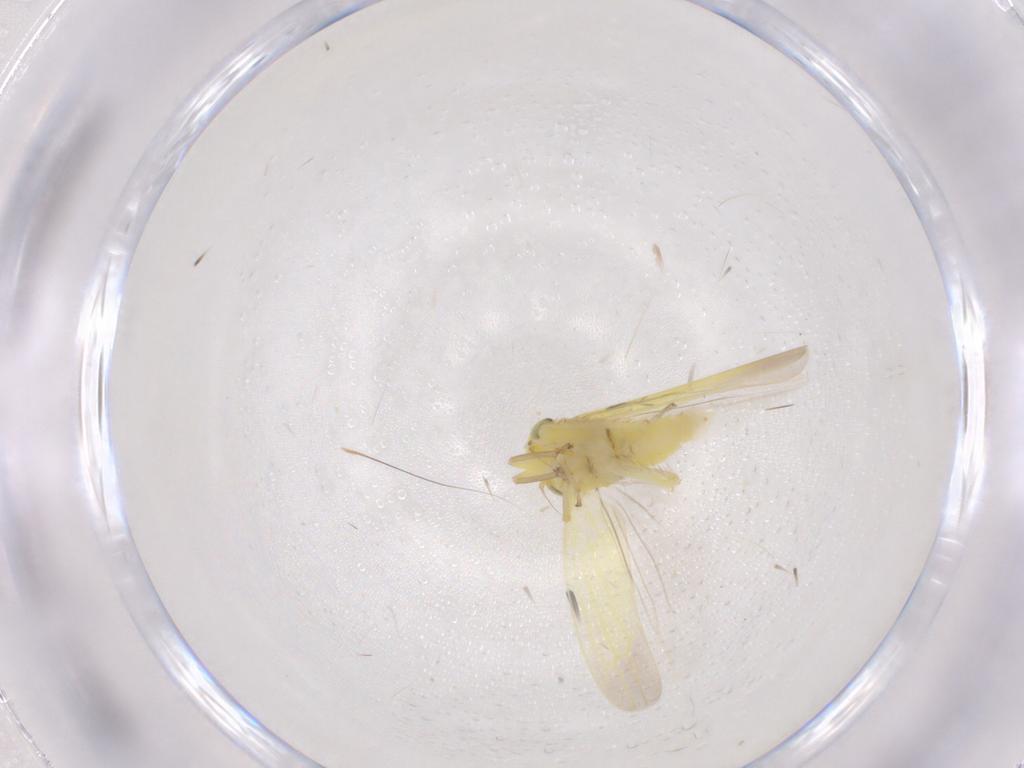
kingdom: Animalia
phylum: Arthropoda
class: Insecta
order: Hemiptera
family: Cicadellidae
